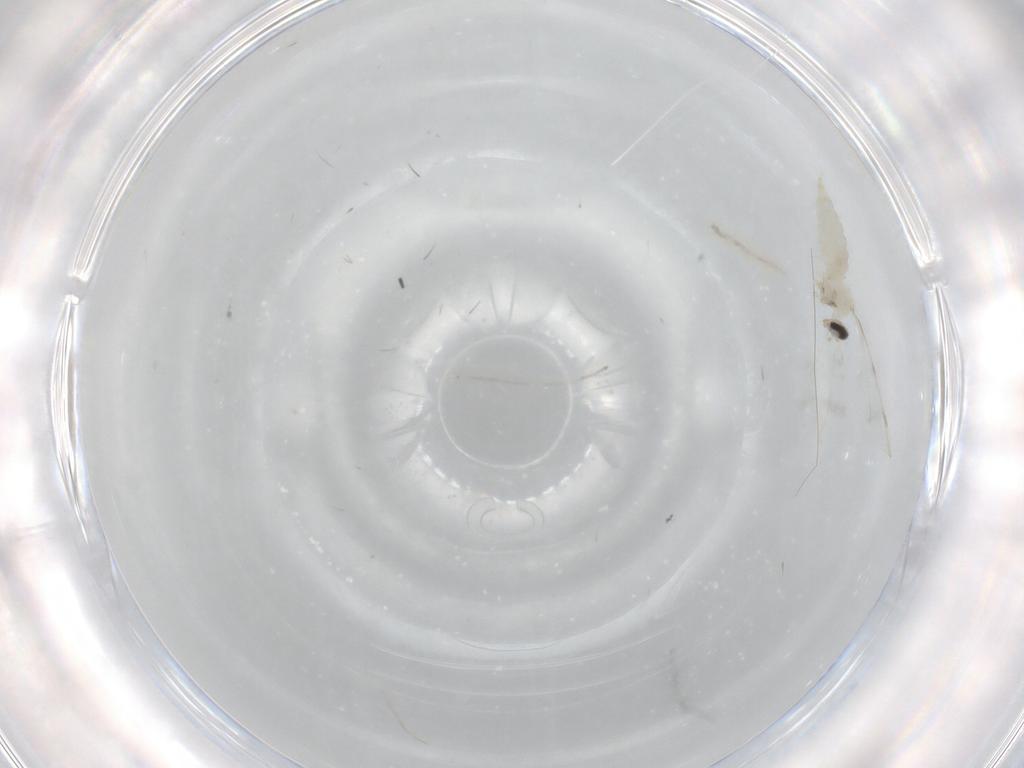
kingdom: Animalia
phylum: Arthropoda
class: Insecta
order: Diptera
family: Cecidomyiidae
